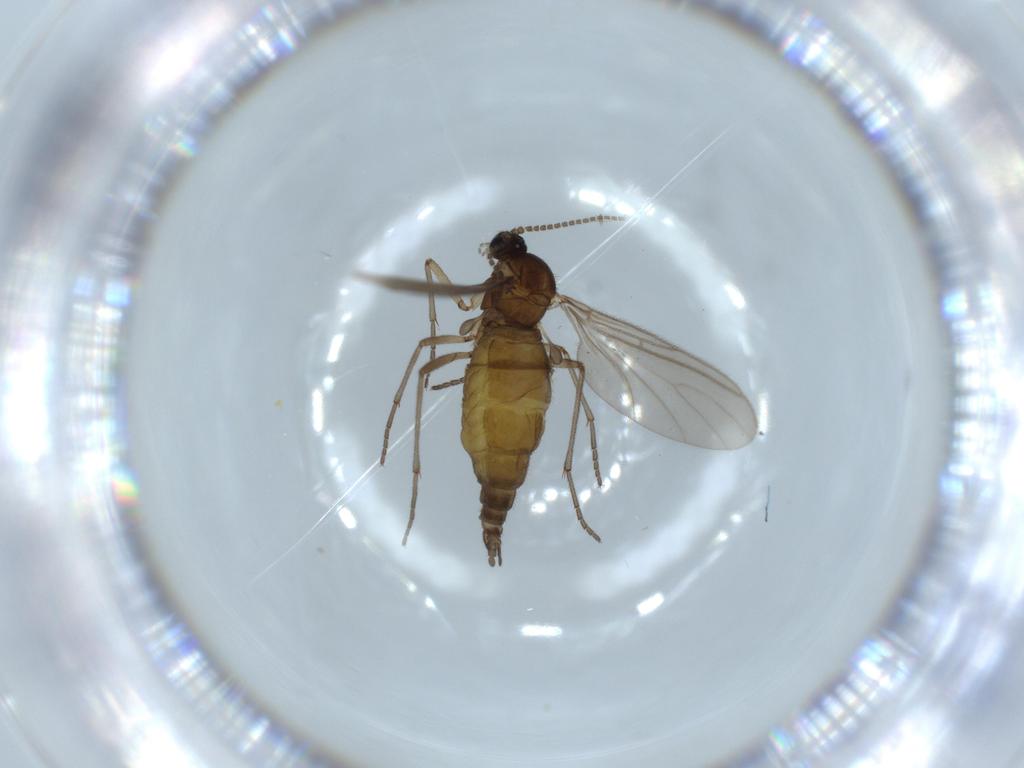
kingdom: Animalia
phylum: Arthropoda
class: Insecta
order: Diptera
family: Sciaridae
